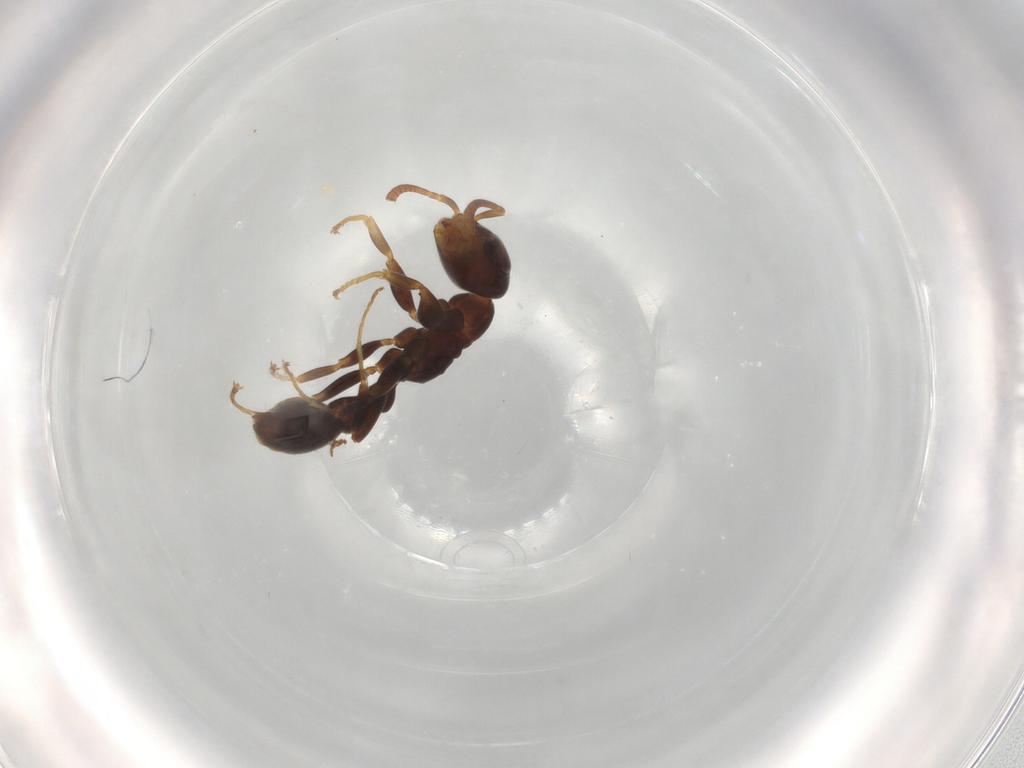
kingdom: Animalia
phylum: Arthropoda
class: Insecta
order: Hymenoptera
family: Formicidae
